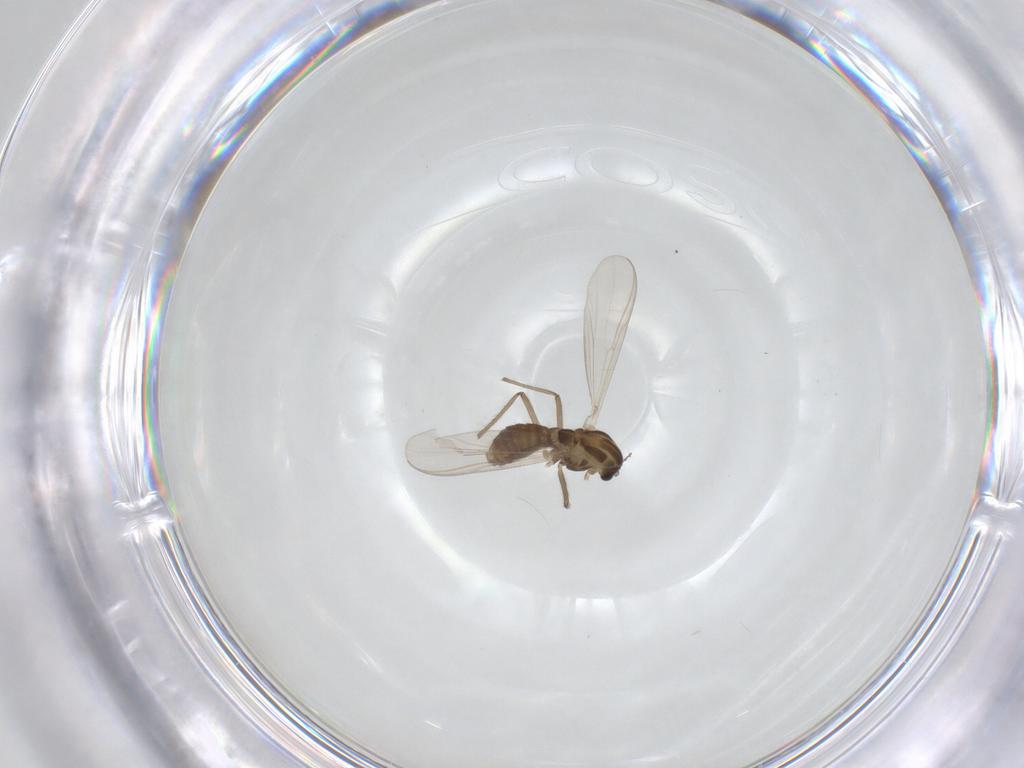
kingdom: Animalia
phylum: Arthropoda
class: Insecta
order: Diptera
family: Chironomidae
